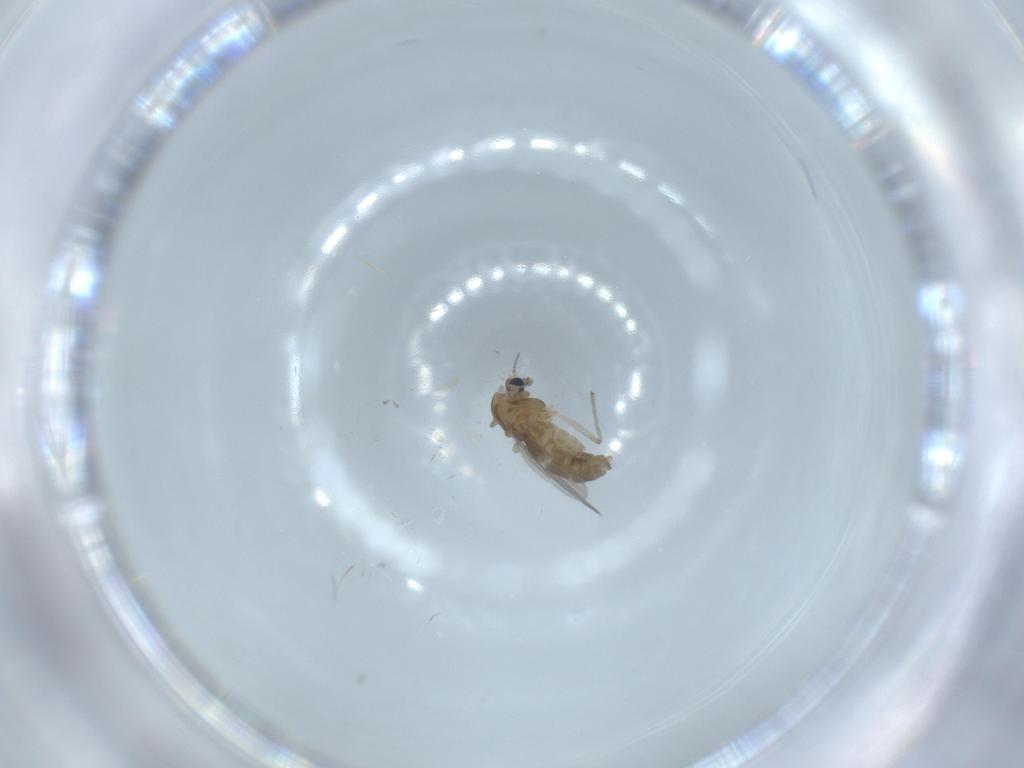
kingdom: Animalia
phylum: Arthropoda
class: Insecta
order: Diptera
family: Chironomidae
